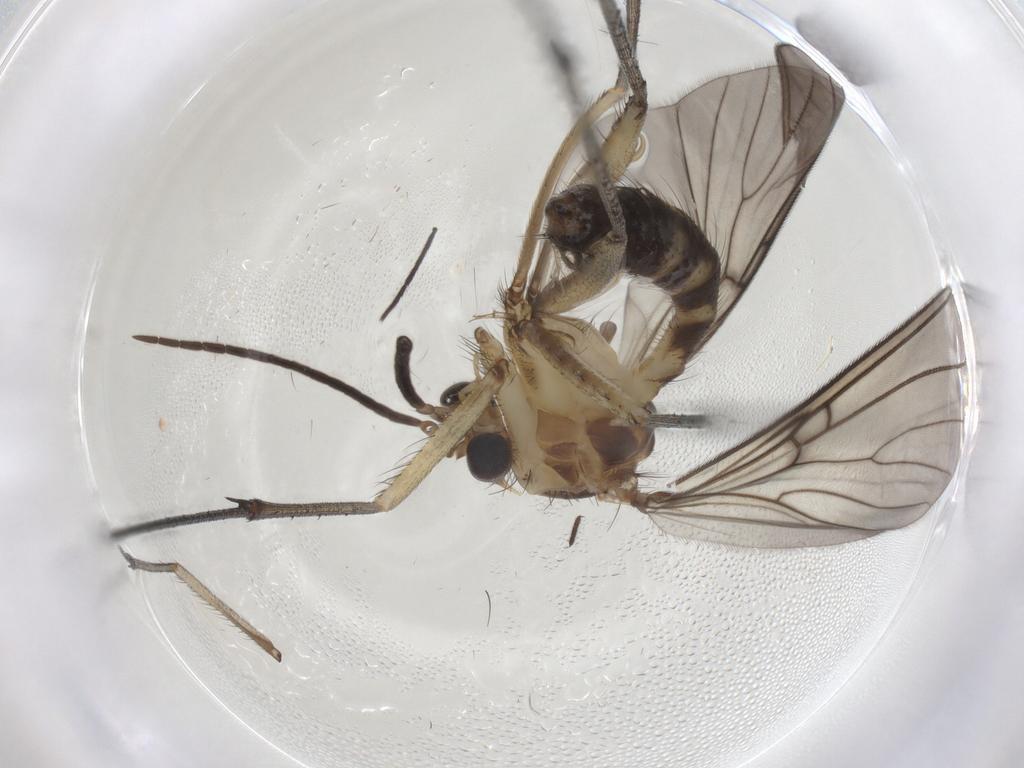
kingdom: Animalia
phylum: Arthropoda
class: Insecta
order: Diptera
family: Mycetophilidae
